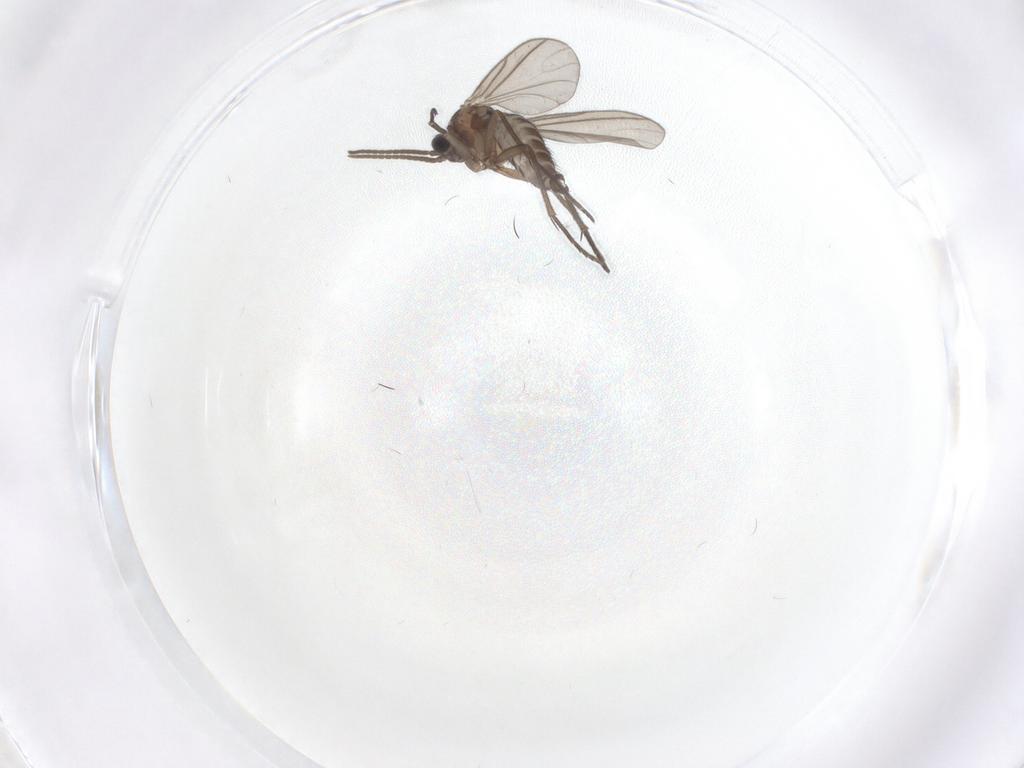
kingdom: Animalia
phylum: Arthropoda
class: Insecta
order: Diptera
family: Sciaridae
